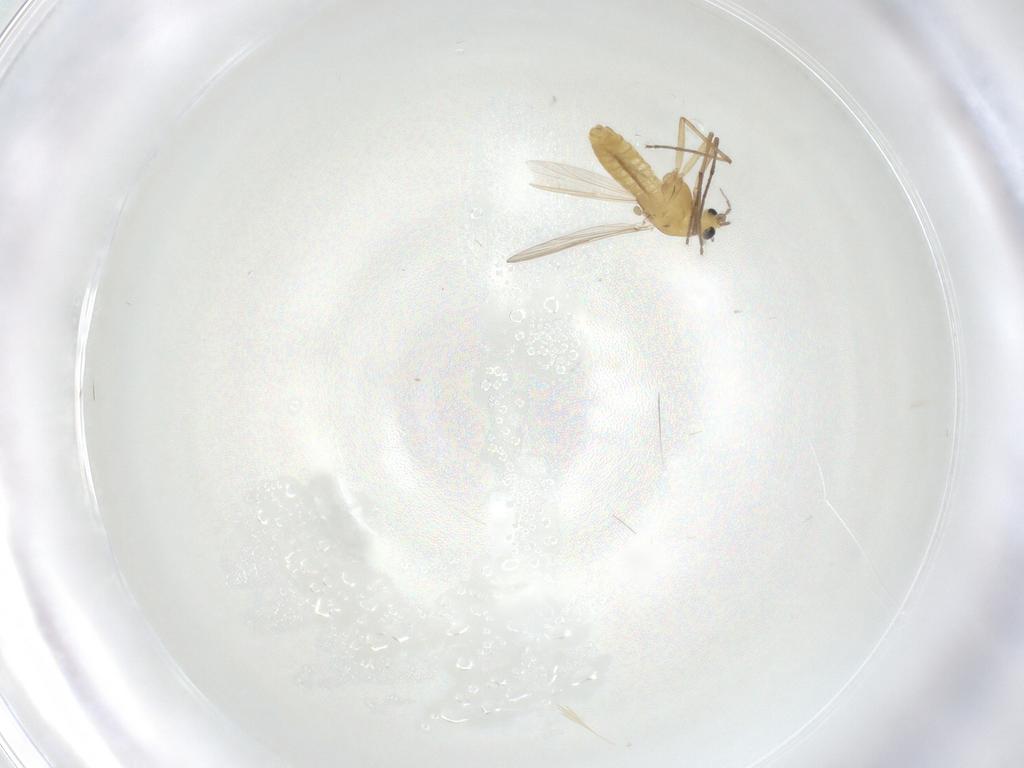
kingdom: Animalia
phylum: Arthropoda
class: Insecta
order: Diptera
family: Chironomidae
